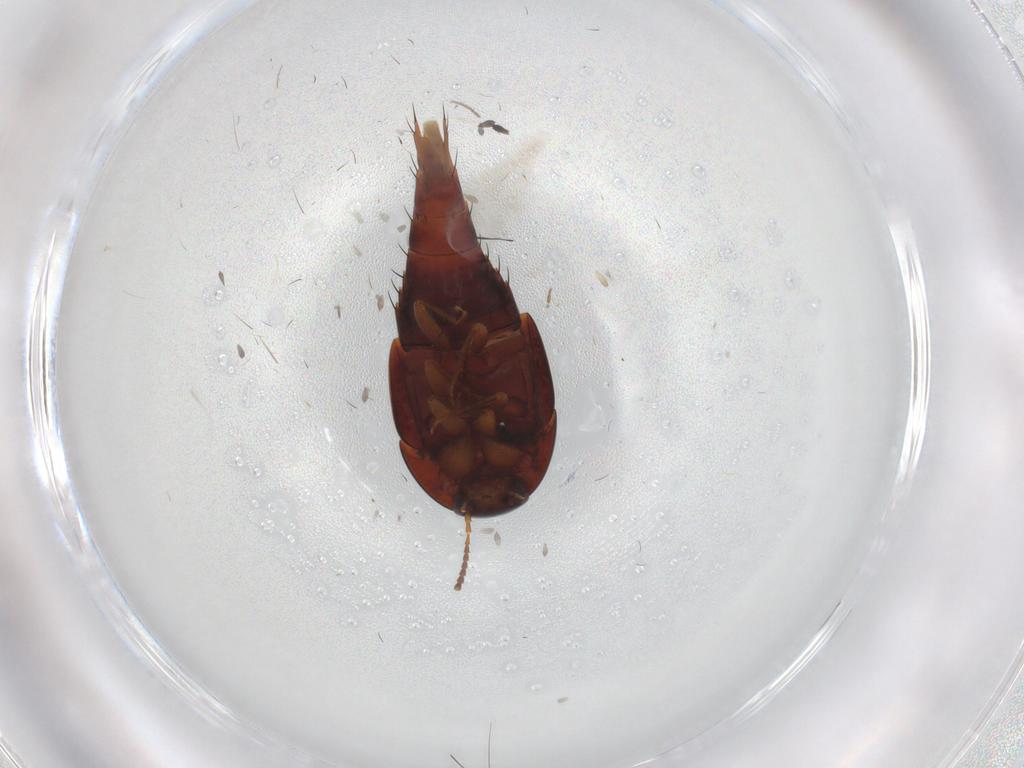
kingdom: Animalia
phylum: Arthropoda
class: Insecta
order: Coleoptera
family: Staphylinidae
